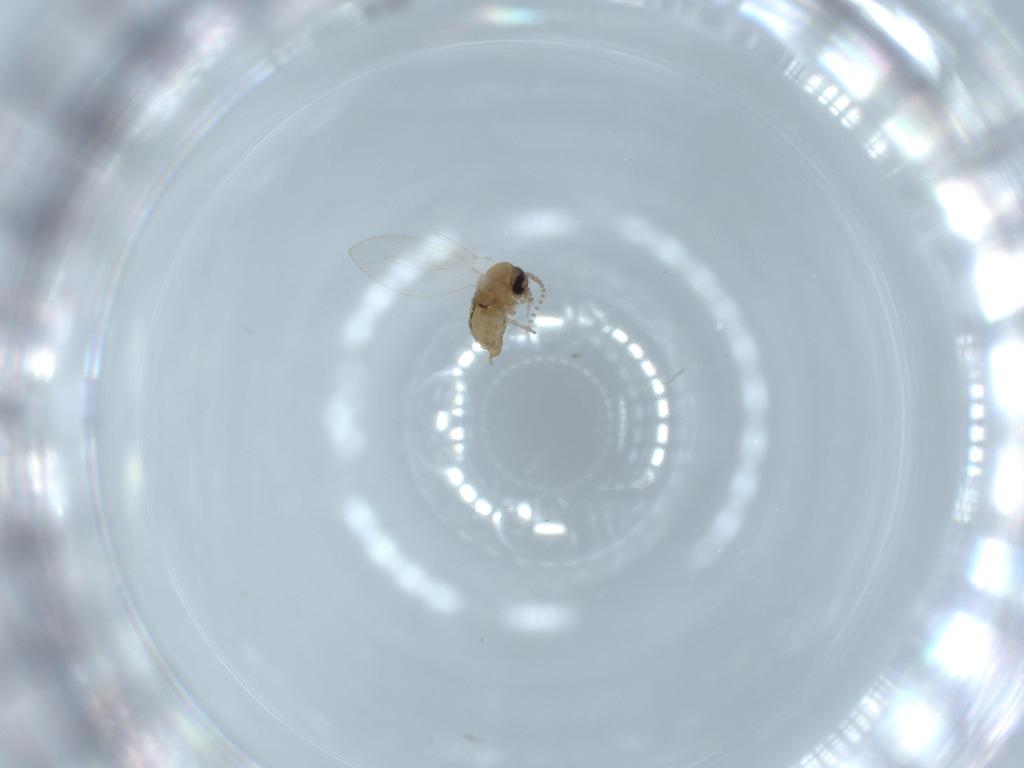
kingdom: Animalia
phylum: Arthropoda
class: Insecta
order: Diptera
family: Psychodidae
